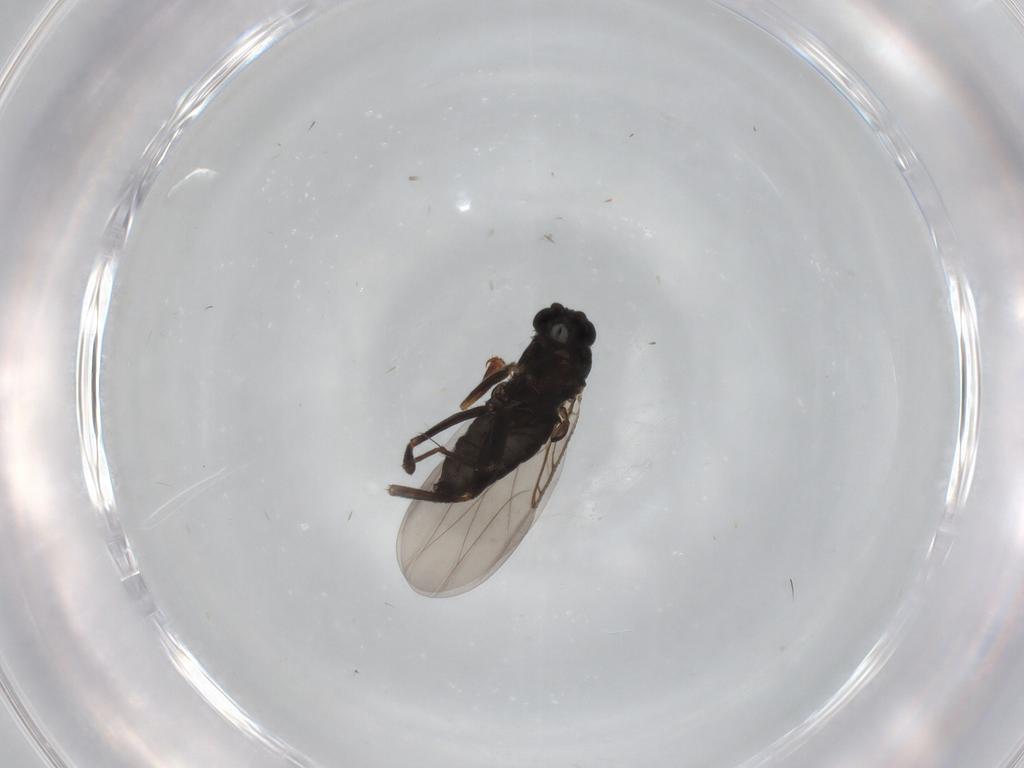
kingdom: Animalia
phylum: Arthropoda
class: Insecta
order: Diptera
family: Phoridae
